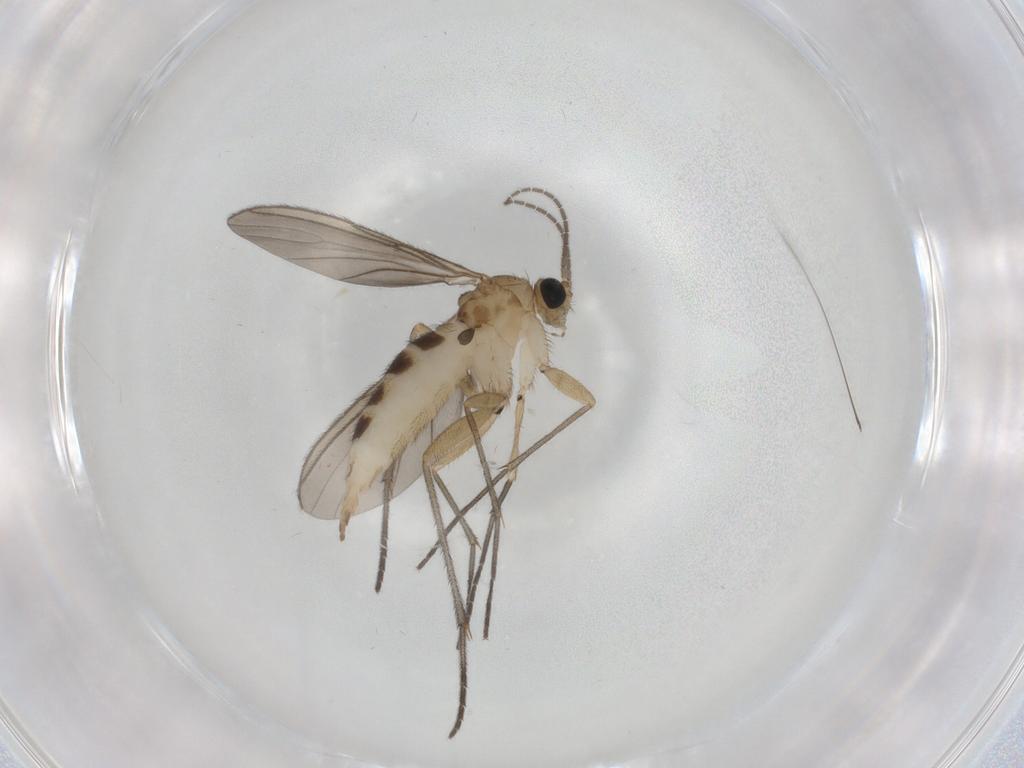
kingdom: Animalia
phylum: Arthropoda
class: Insecta
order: Diptera
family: Sciaridae
